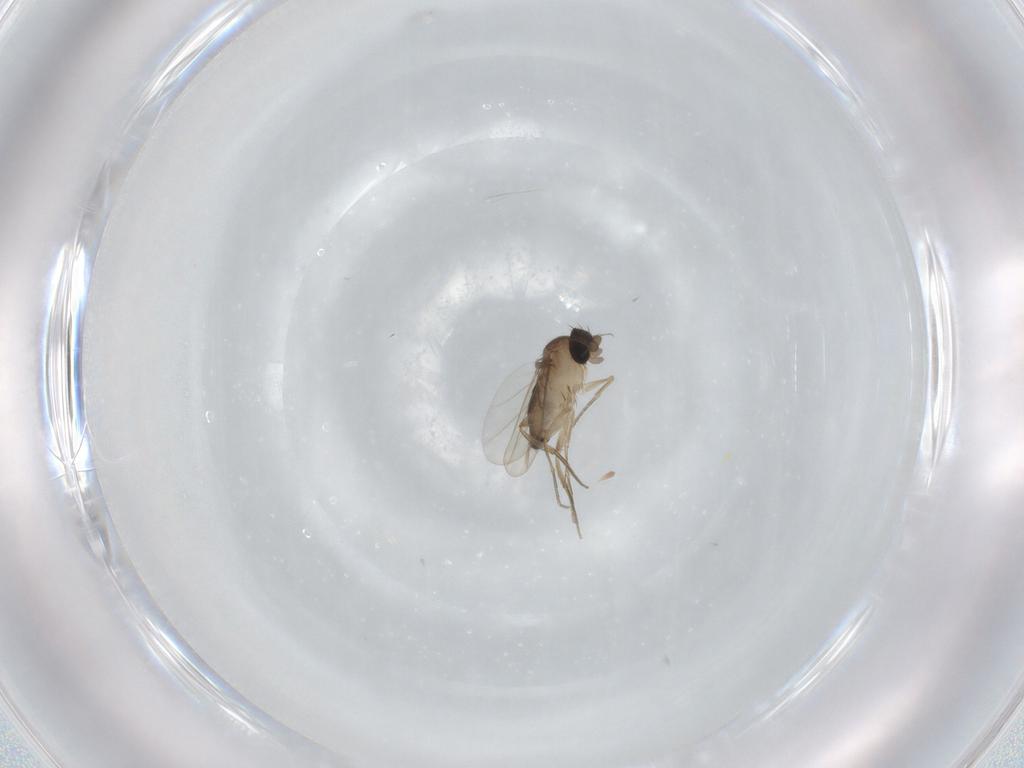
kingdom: Animalia
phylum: Arthropoda
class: Insecta
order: Diptera
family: Phoridae
